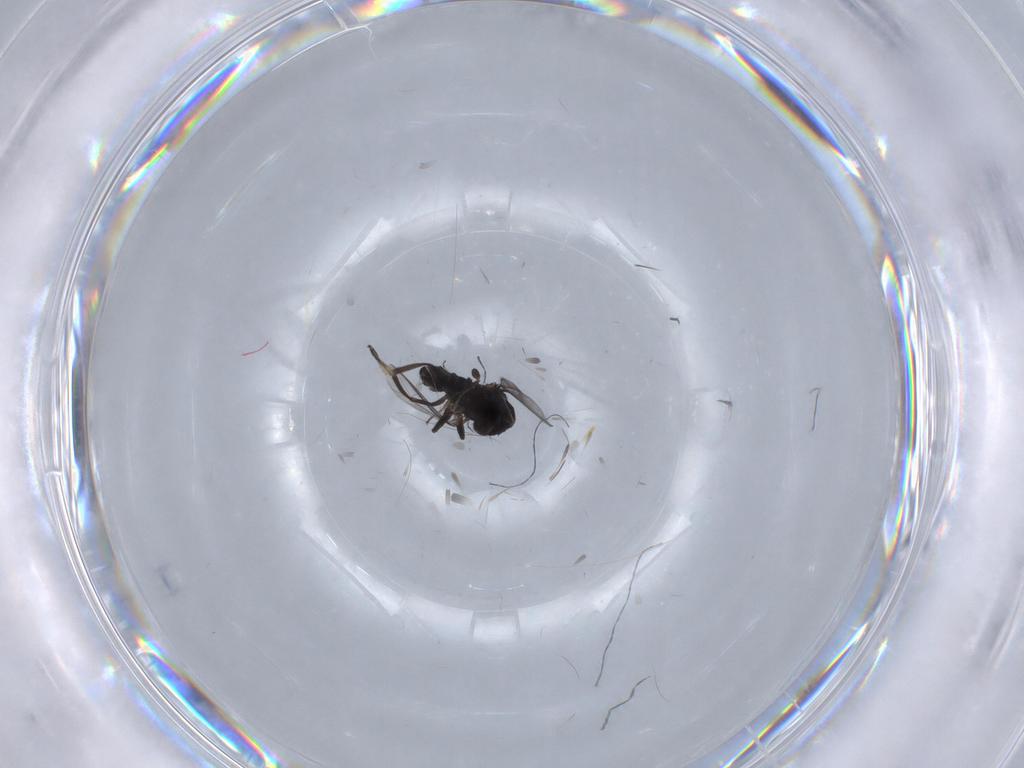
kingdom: Animalia
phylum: Arthropoda
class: Insecta
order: Diptera
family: Dolichopodidae
